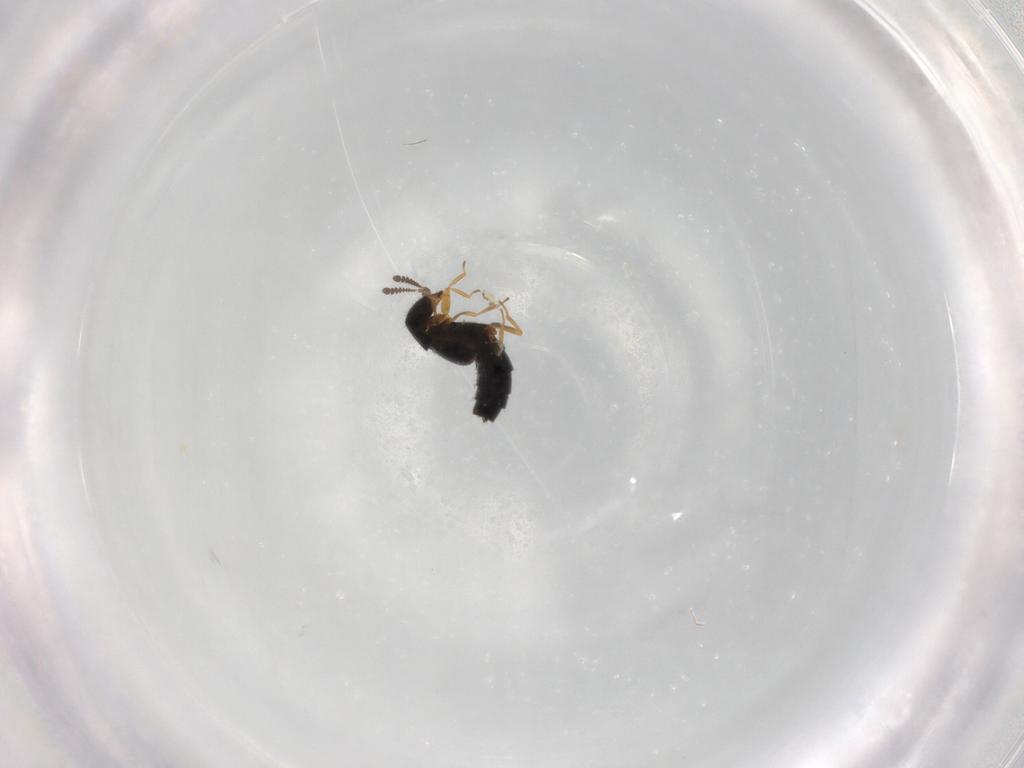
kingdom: Animalia
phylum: Arthropoda
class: Insecta
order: Coleoptera
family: Staphylinidae
